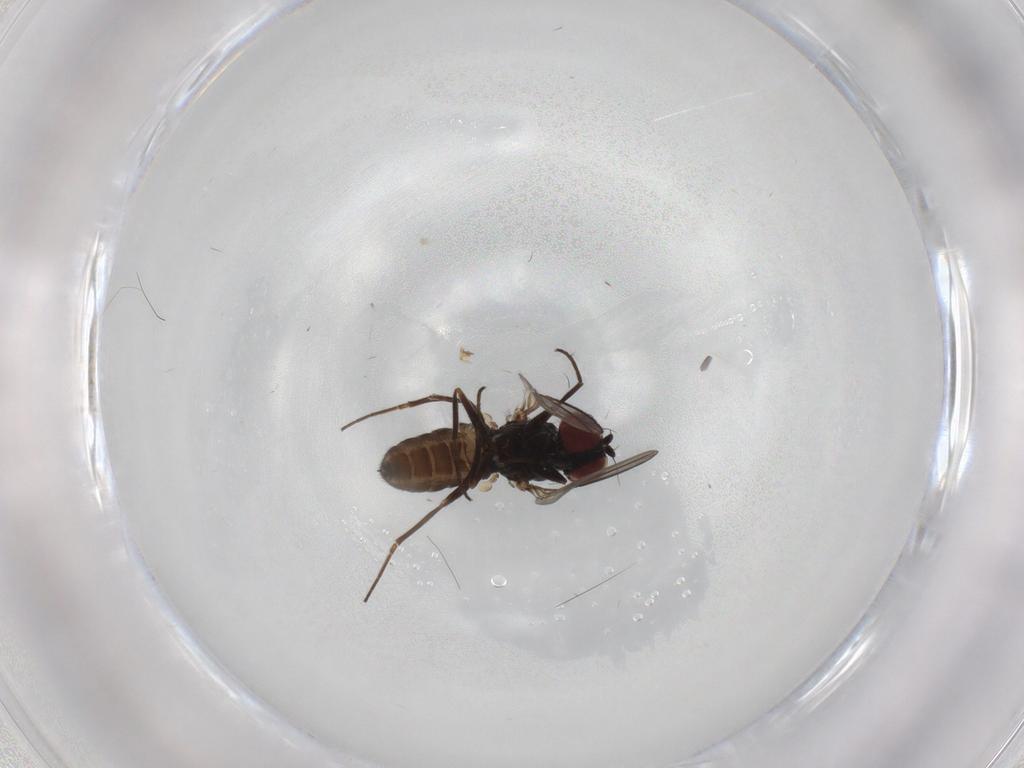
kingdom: Animalia
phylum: Arthropoda
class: Insecta
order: Diptera
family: Dolichopodidae
